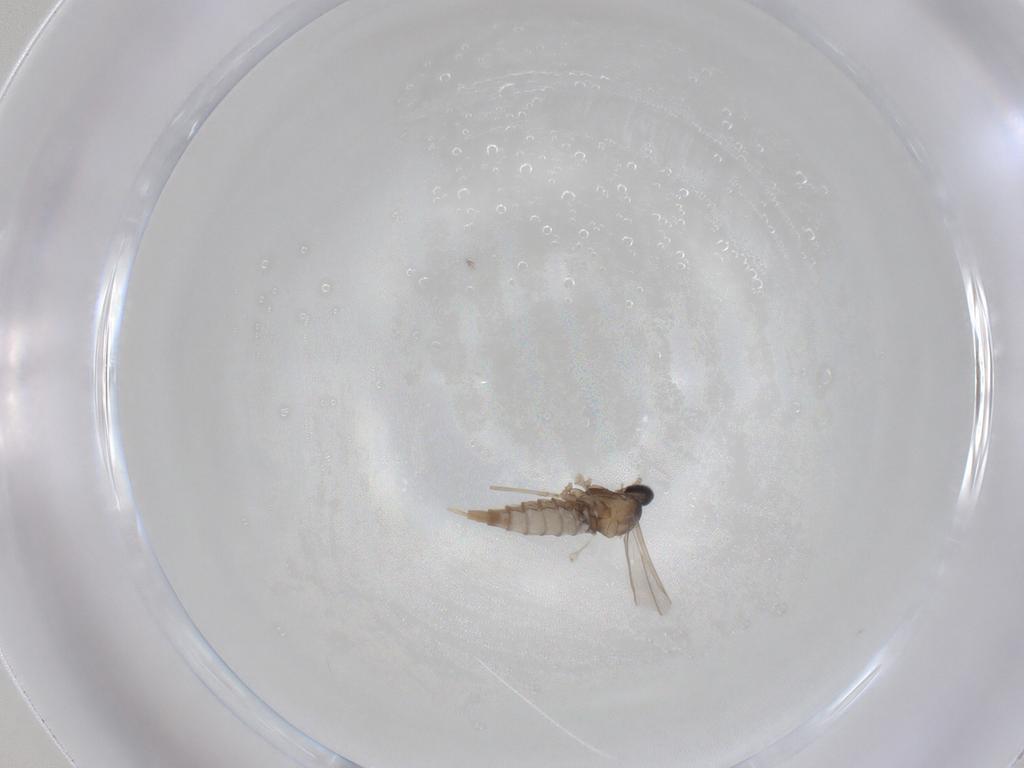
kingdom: Animalia
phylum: Arthropoda
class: Insecta
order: Diptera
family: Cecidomyiidae
